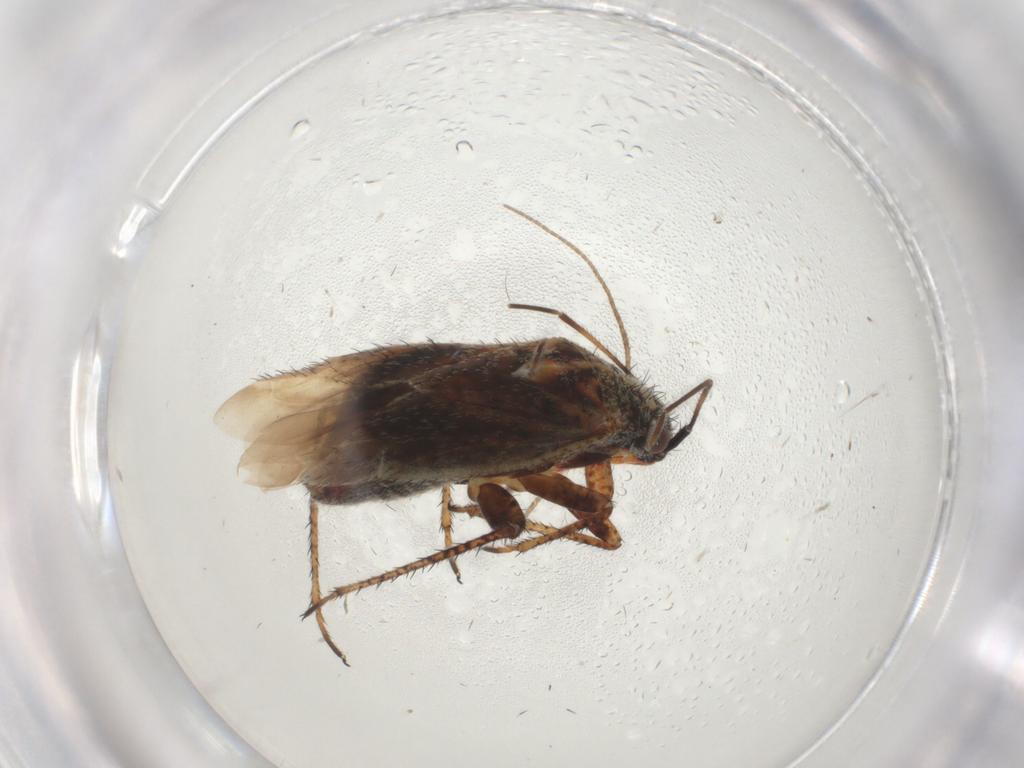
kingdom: Animalia
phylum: Arthropoda
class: Insecta
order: Hemiptera
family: Miridae
